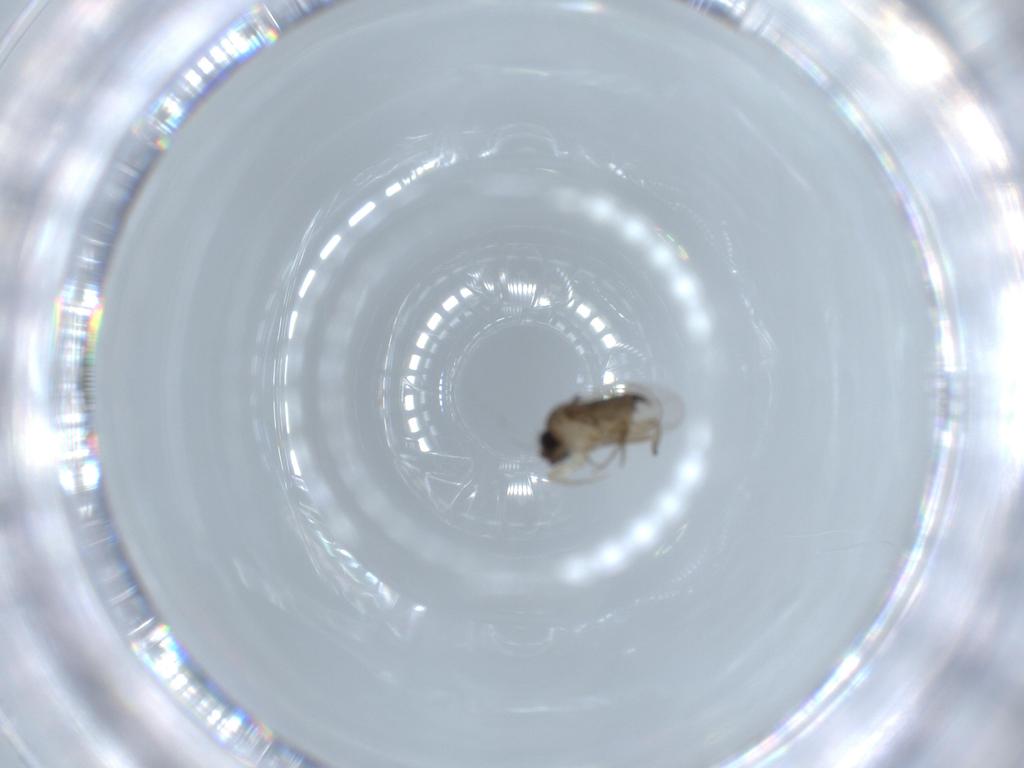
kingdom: Animalia
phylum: Arthropoda
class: Insecta
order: Diptera
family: Phoridae
